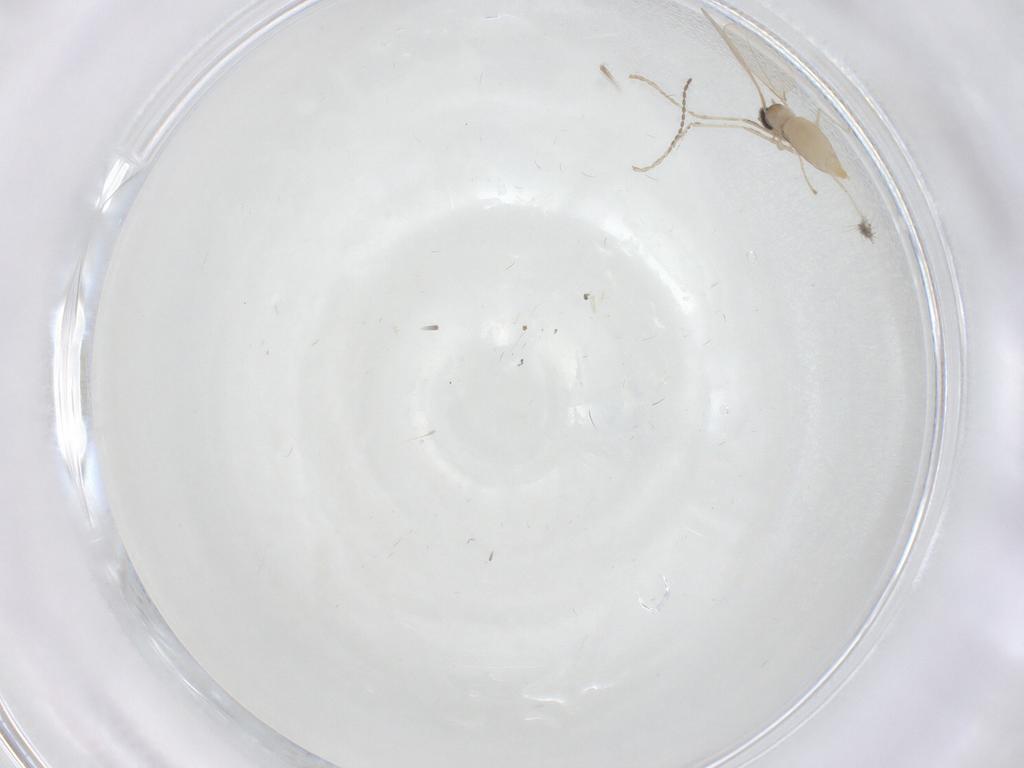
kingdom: Animalia
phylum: Arthropoda
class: Insecta
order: Diptera
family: Cecidomyiidae
